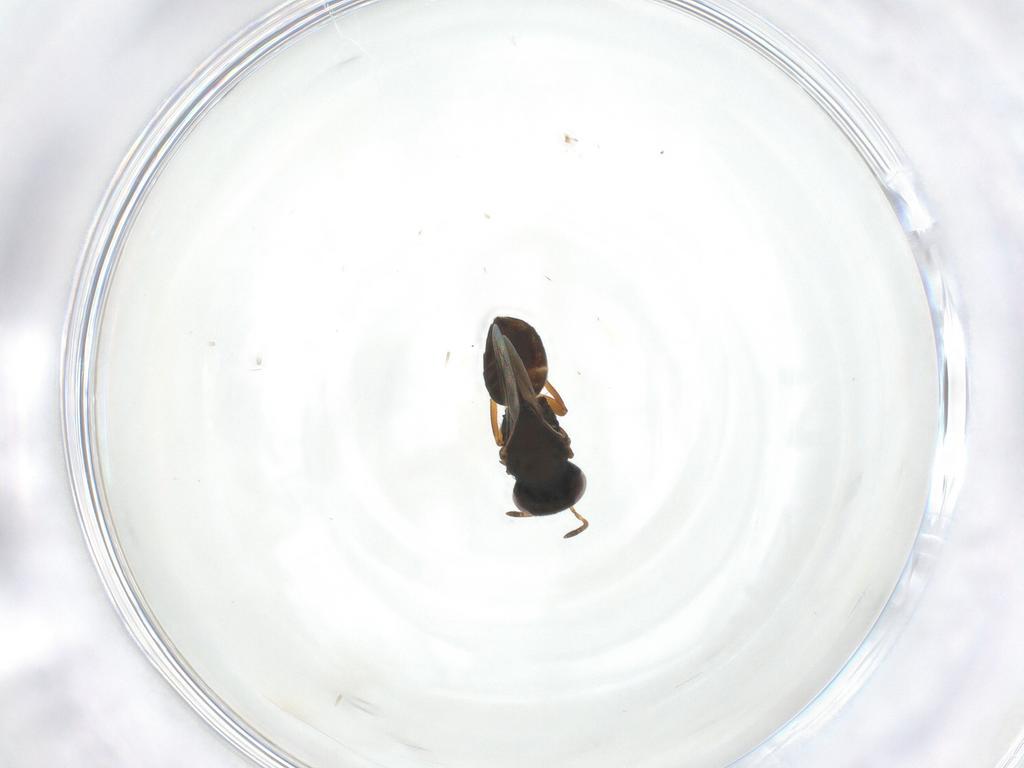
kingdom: Animalia
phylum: Arthropoda
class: Insecta
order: Hymenoptera
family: Pteromalidae
